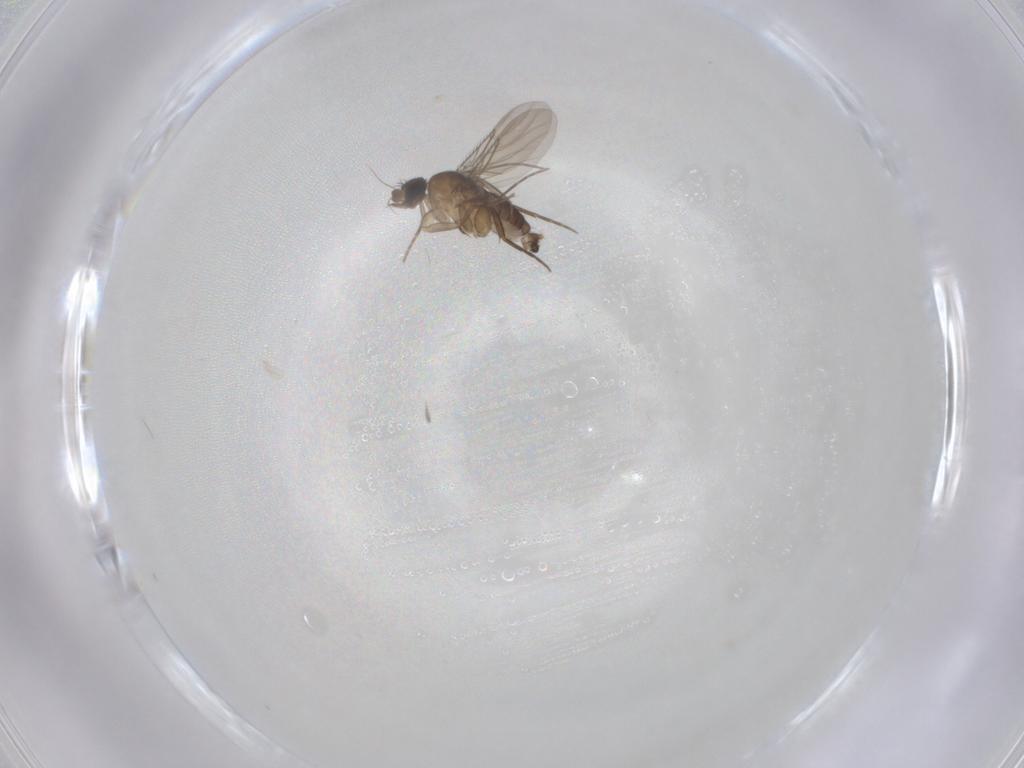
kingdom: Animalia
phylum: Arthropoda
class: Insecta
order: Diptera
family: Phoridae
